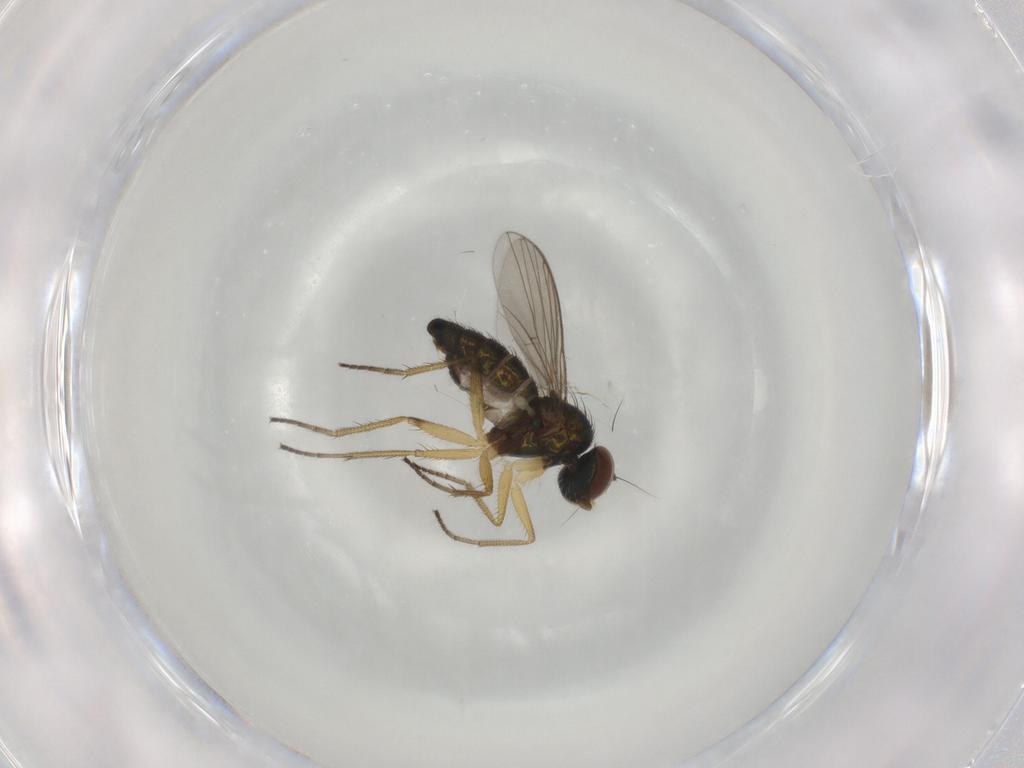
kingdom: Animalia
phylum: Arthropoda
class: Insecta
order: Diptera
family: Dolichopodidae
